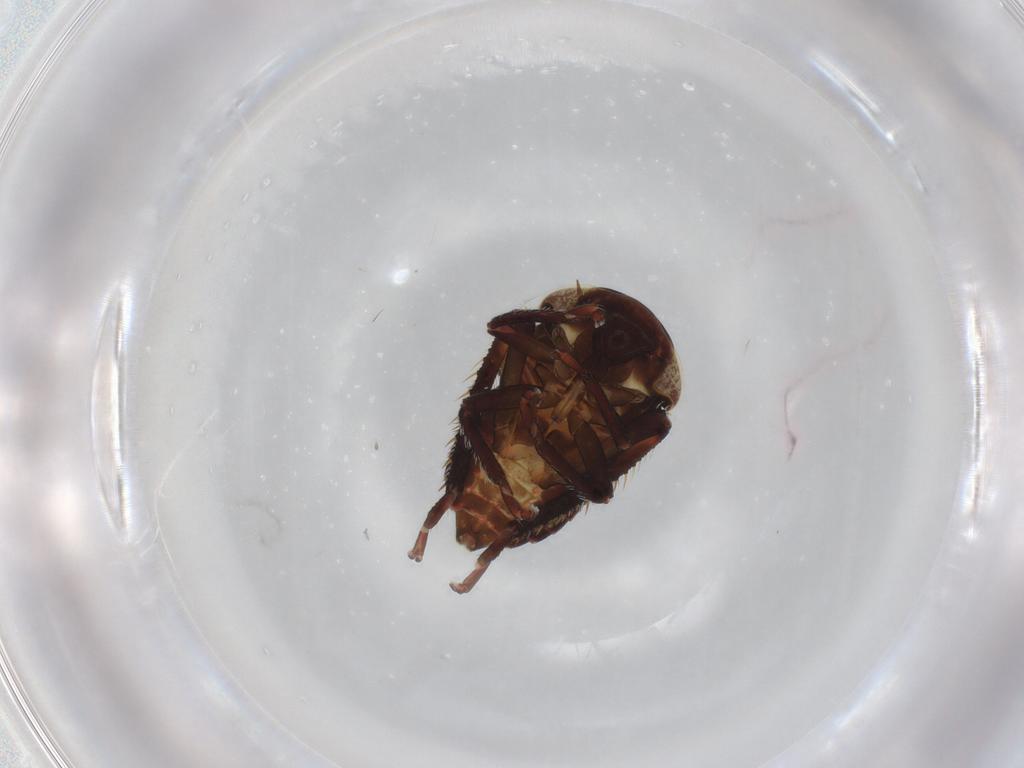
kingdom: Animalia
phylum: Arthropoda
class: Insecta
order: Hemiptera
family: Cicadellidae
